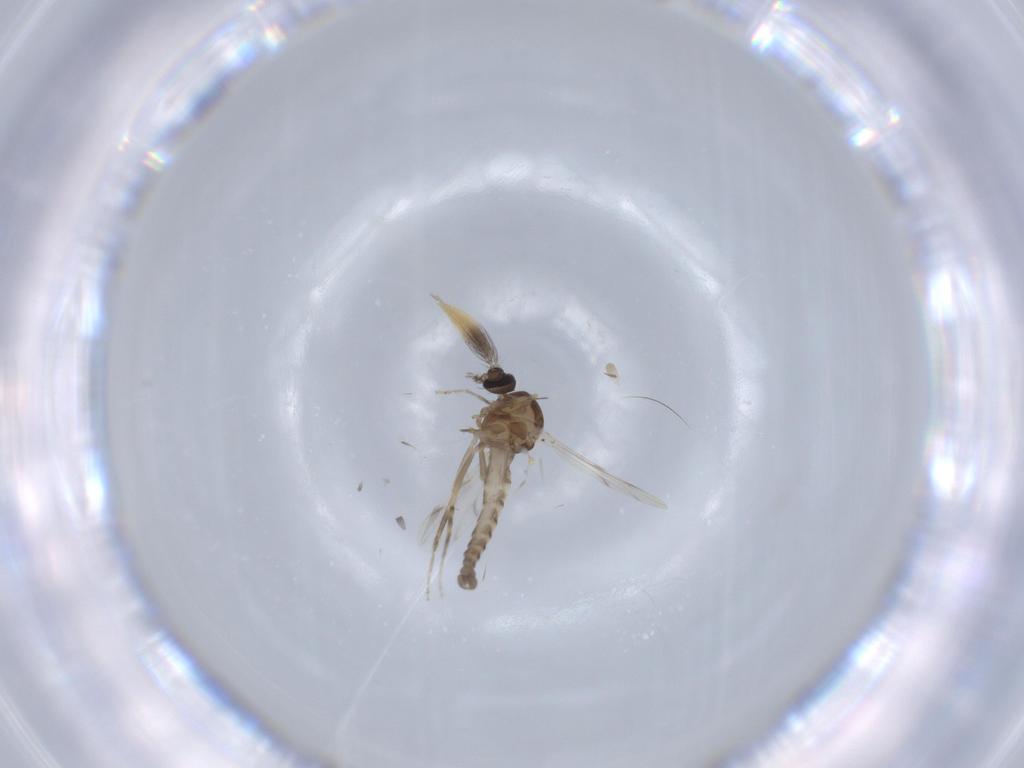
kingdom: Animalia
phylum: Arthropoda
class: Insecta
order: Diptera
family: Ceratopogonidae
